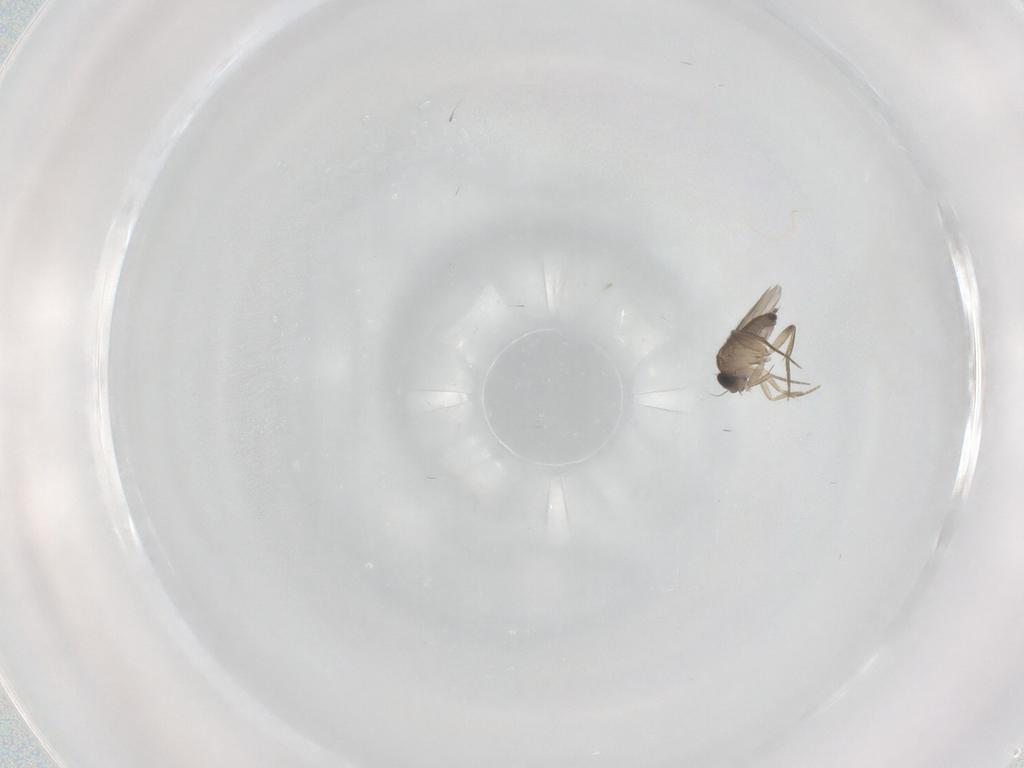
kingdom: Animalia
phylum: Arthropoda
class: Insecta
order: Diptera
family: Phoridae
